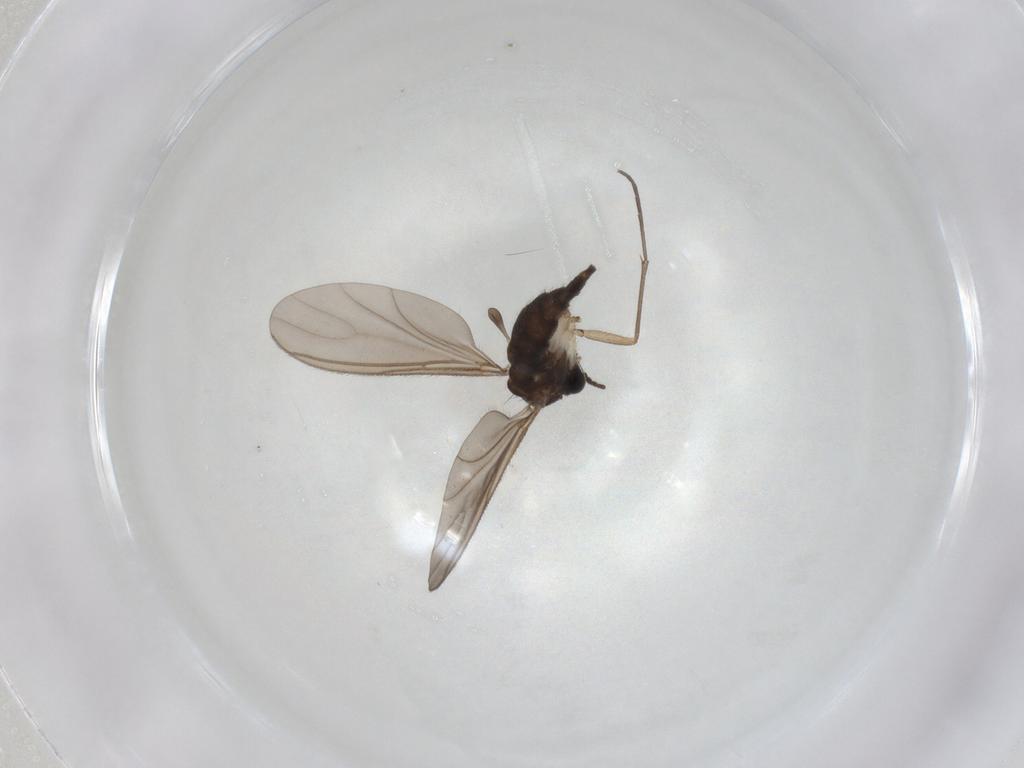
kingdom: Animalia
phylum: Arthropoda
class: Insecta
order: Diptera
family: Sciaridae
